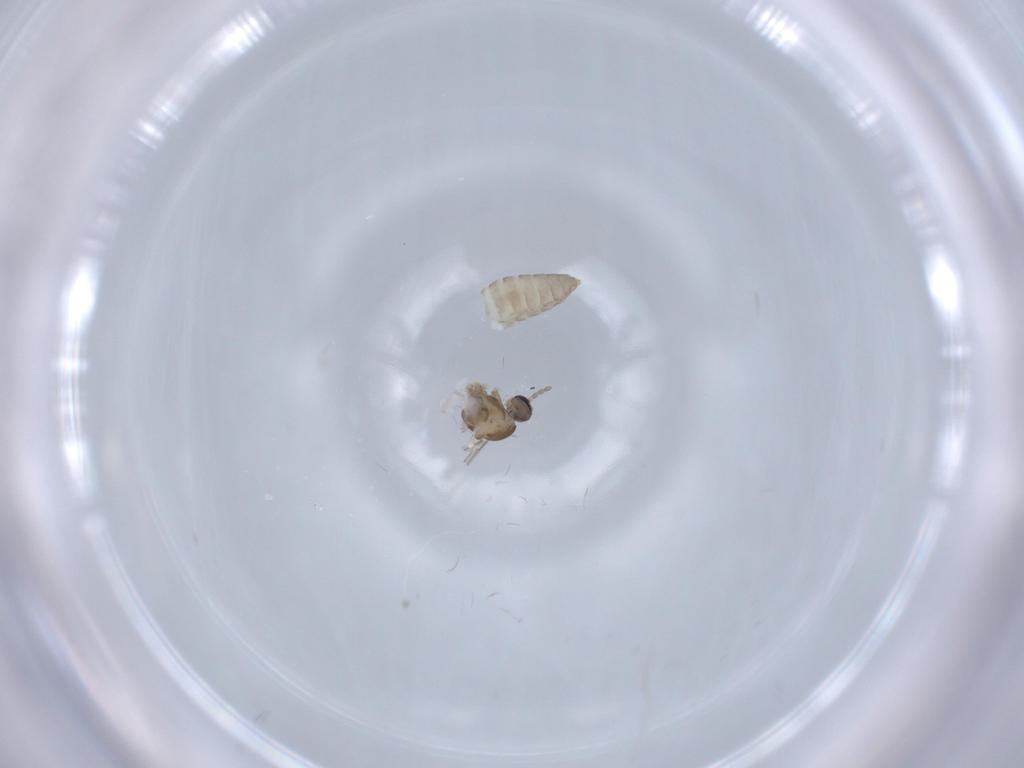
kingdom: Animalia
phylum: Arthropoda
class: Insecta
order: Diptera
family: Cecidomyiidae
